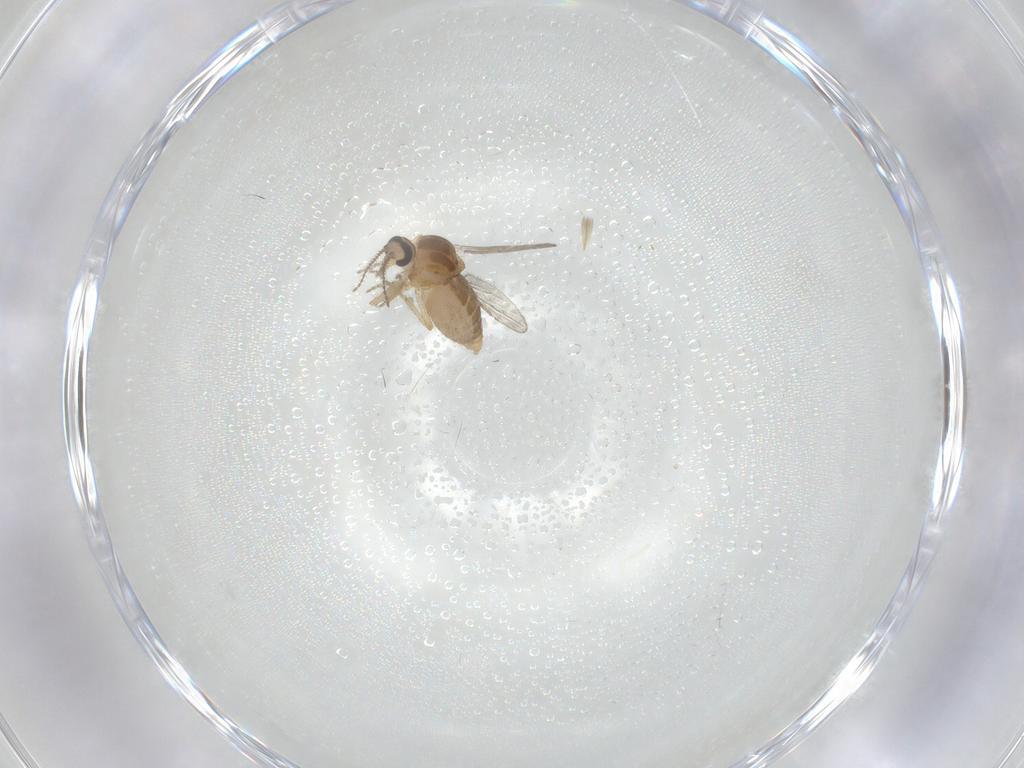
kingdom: Animalia
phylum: Arthropoda
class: Insecta
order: Diptera
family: Ceratopogonidae
